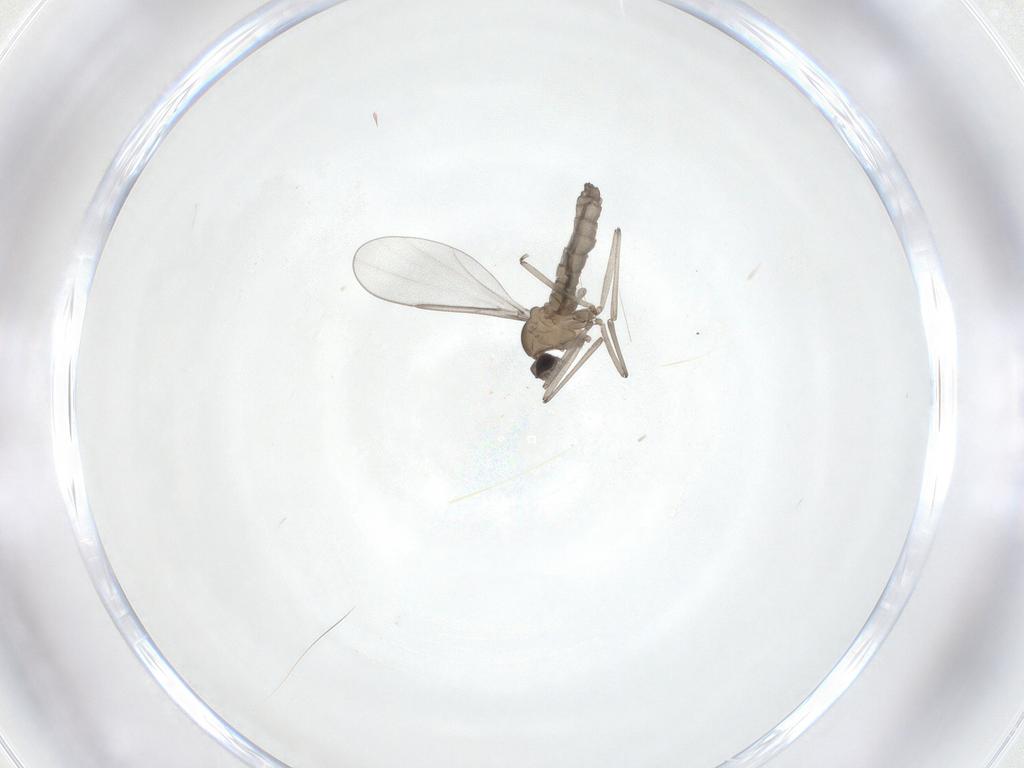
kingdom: Animalia
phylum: Arthropoda
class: Insecta
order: Diptera
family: Cecidomyiidae
